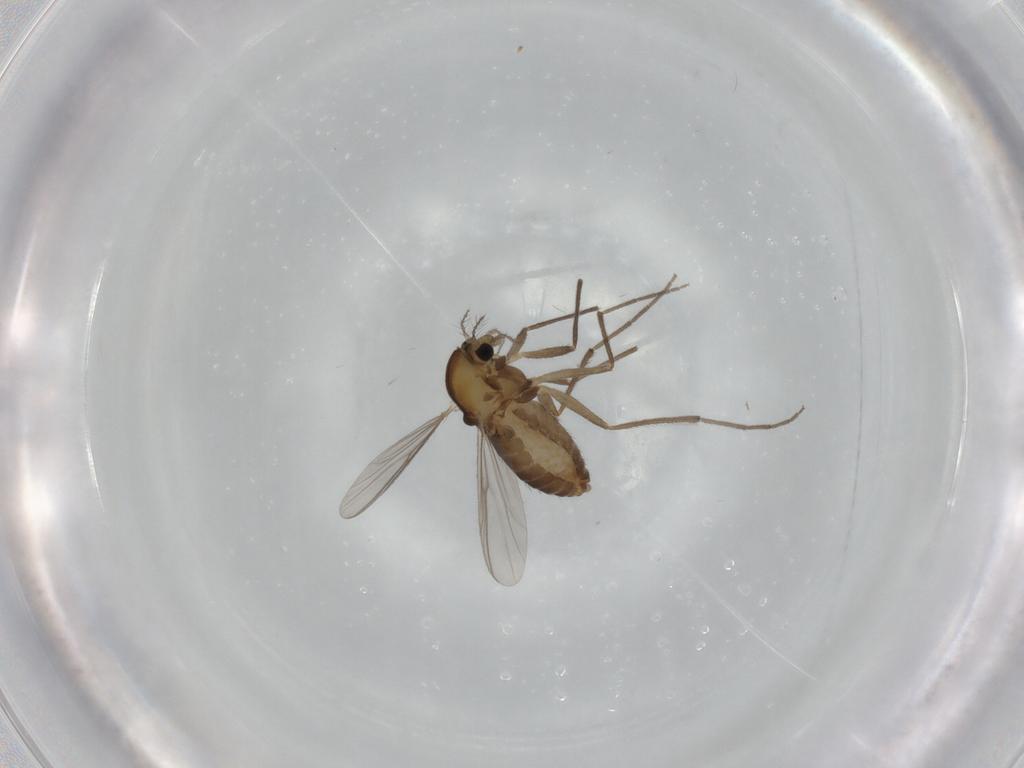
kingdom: Animalia
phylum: Arthropoda
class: Insecta
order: Diptera
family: Chironomidae
